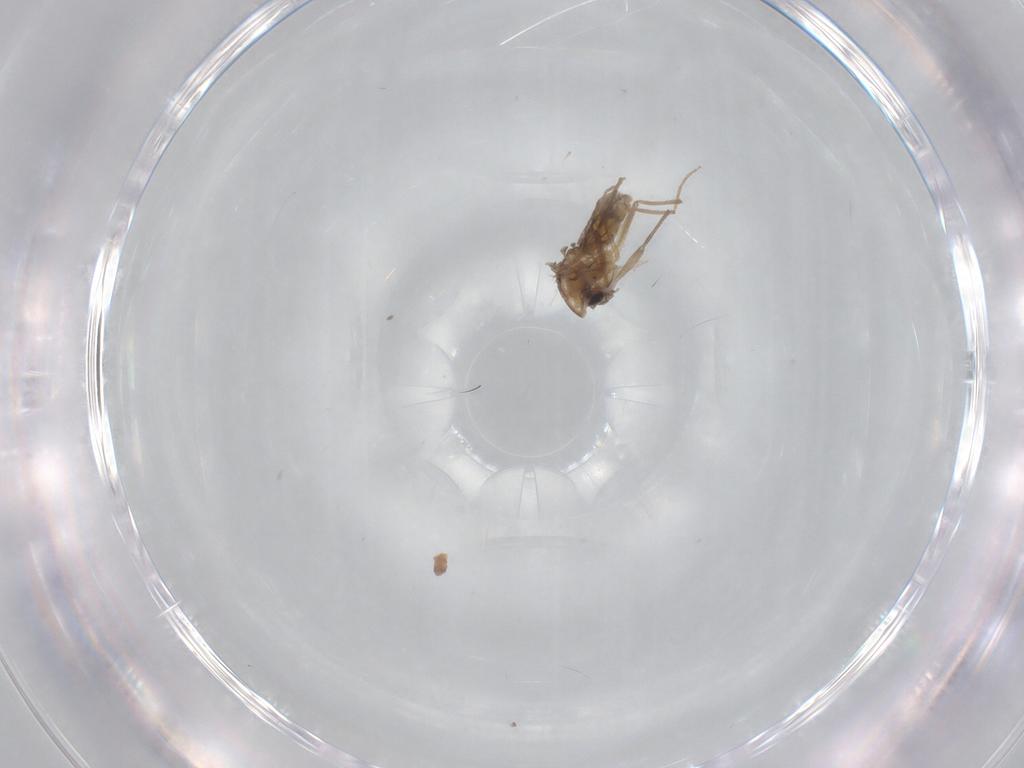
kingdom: Animalia
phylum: Arthropoda
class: Insecta
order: Diptera
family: Chironomidae
